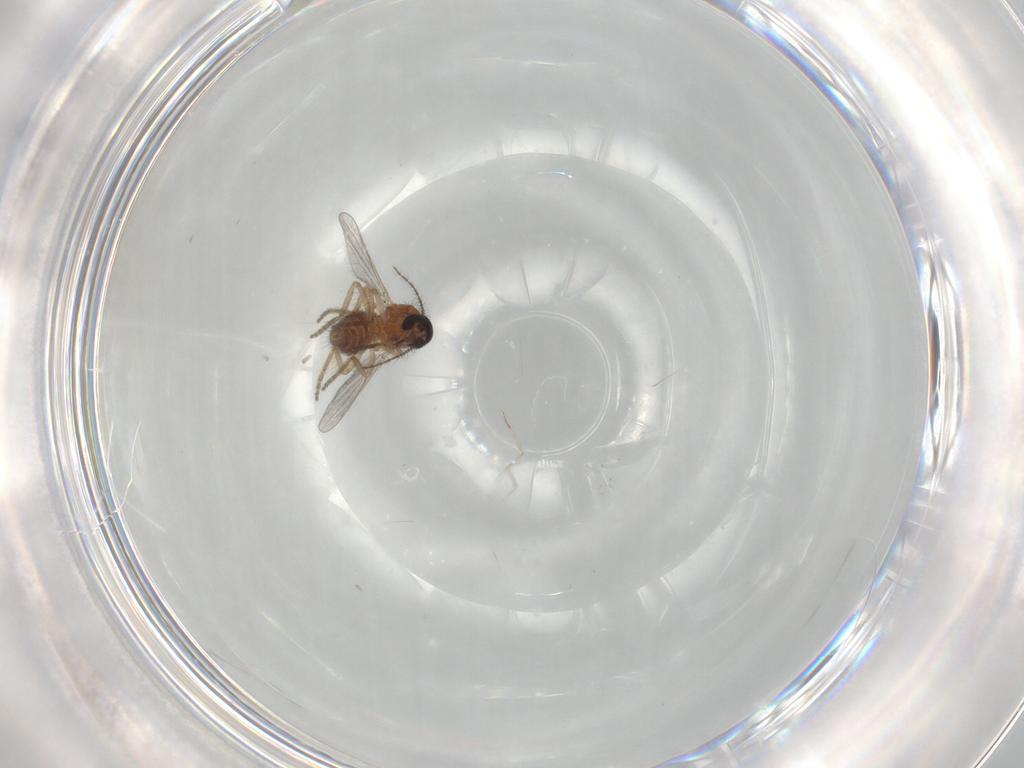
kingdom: Animalia
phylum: Arthropoda
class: Insecta
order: Diptera
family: Ceratopogonidae
